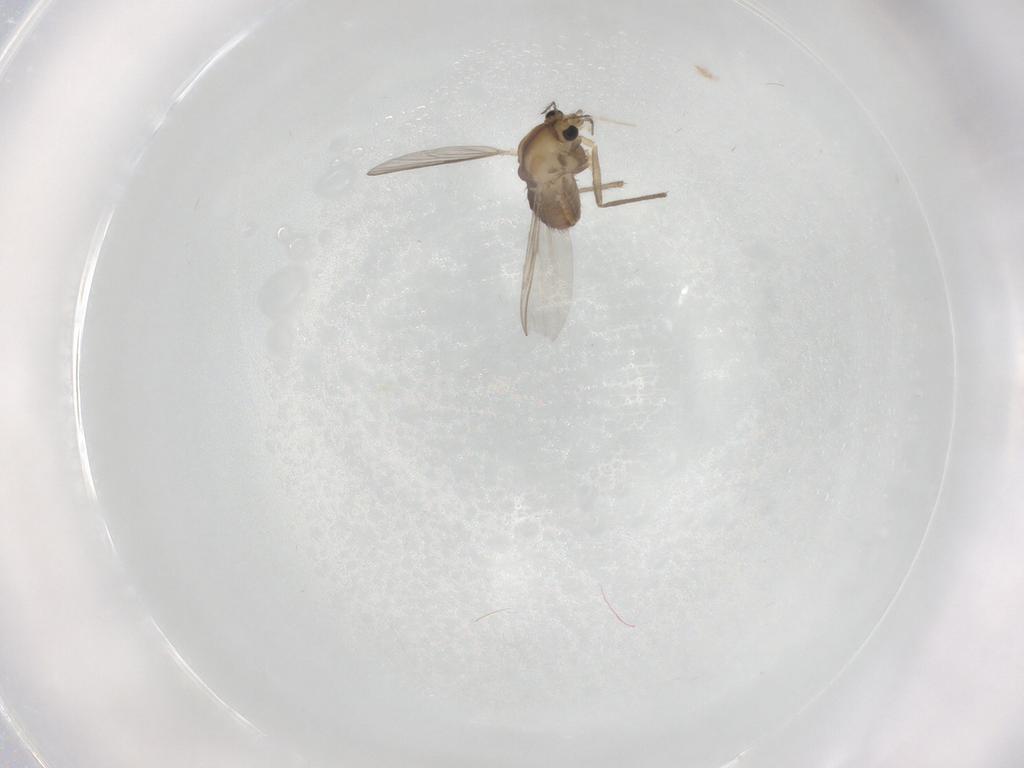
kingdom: Animalia
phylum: Arthropoda
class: Insecta
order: Diptera
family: Chironomidae
